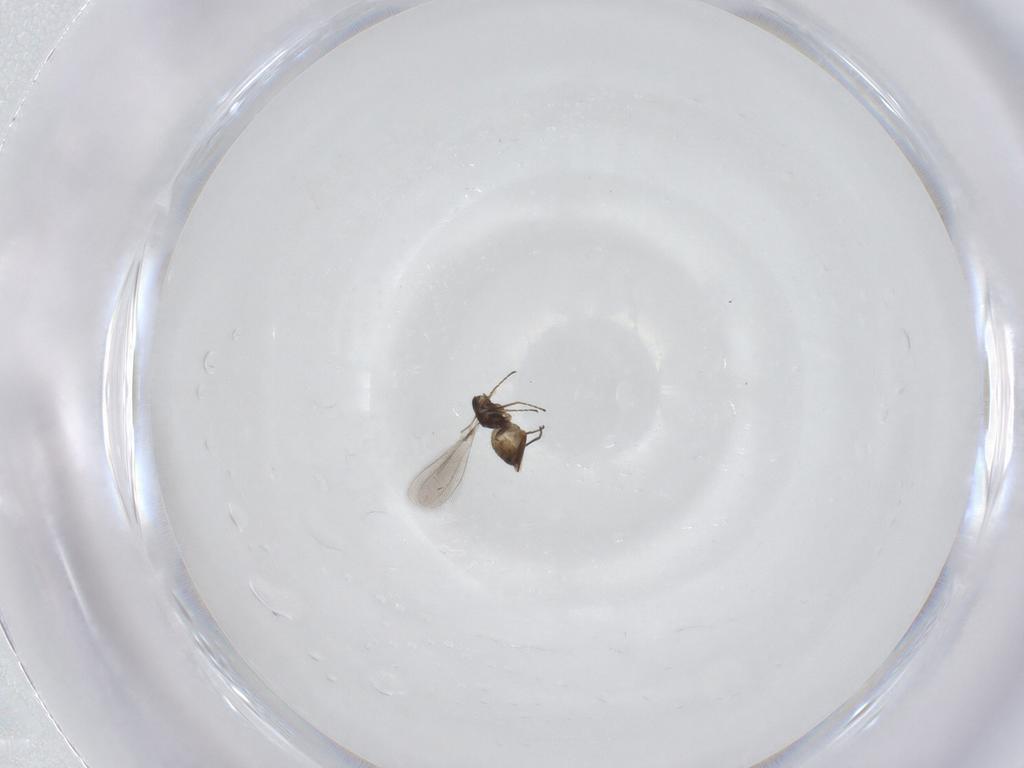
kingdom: Animalia
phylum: Arthropoda
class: Insecta
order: Hymenoptera
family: Mymaridae
